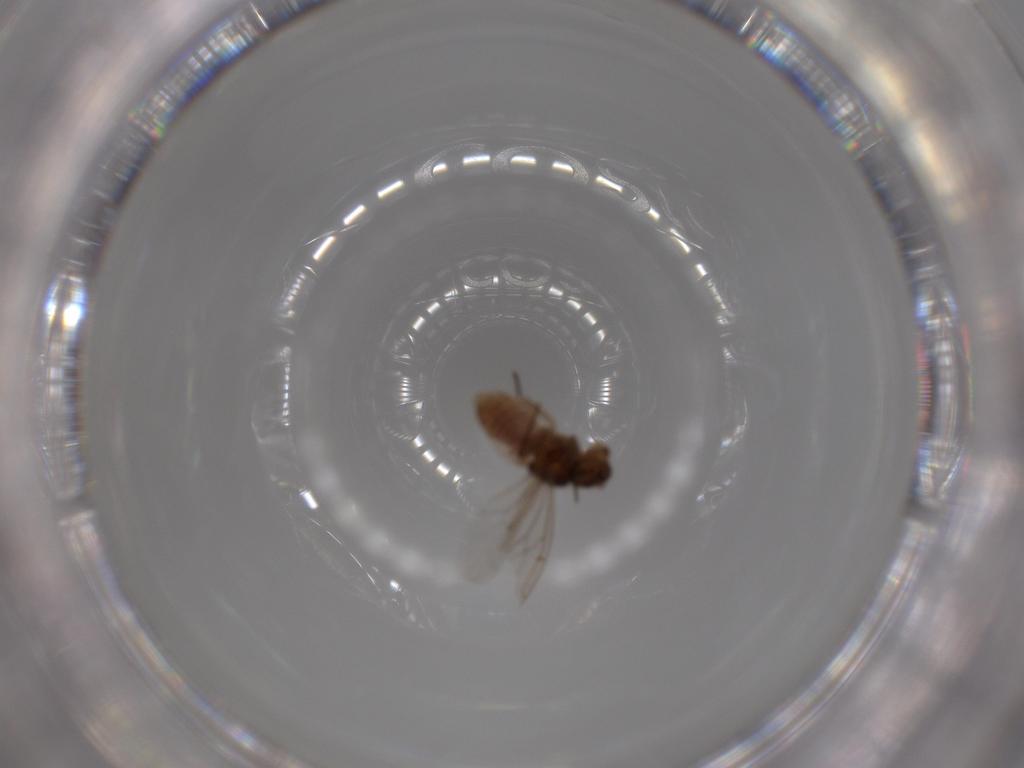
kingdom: Animalia
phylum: Arthropoda
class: Insecta
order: Psocodea
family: Ectopsocidae
